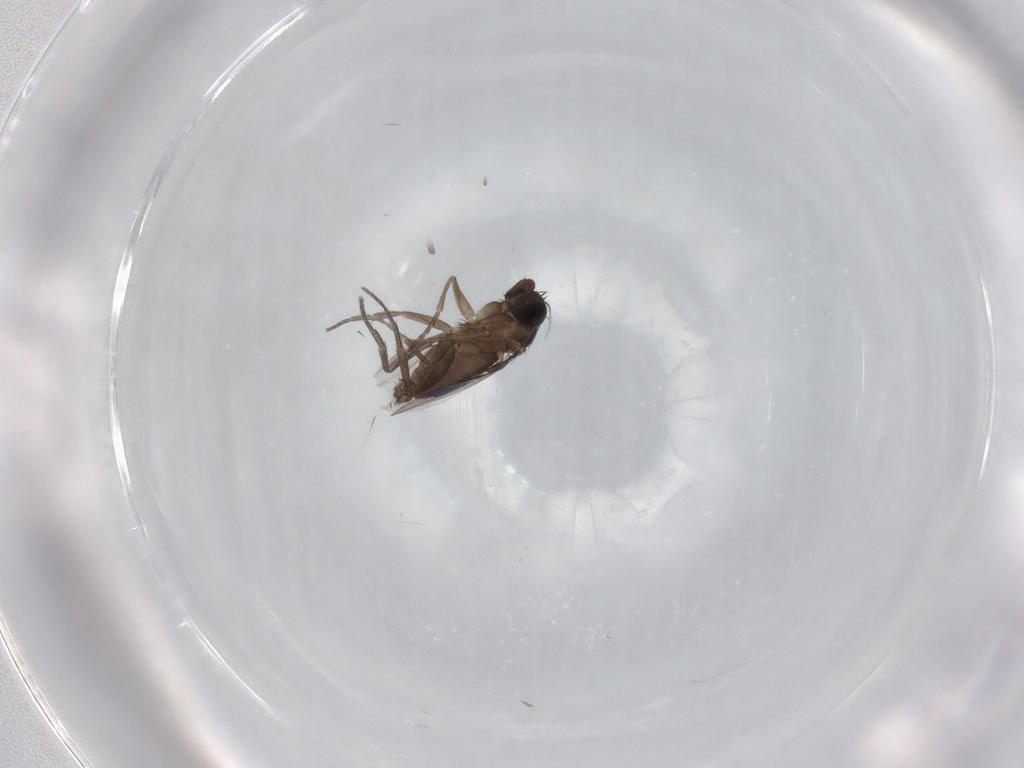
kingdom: Animalia
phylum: Arthropoda
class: Insecta
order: Diptera
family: Phoridae
